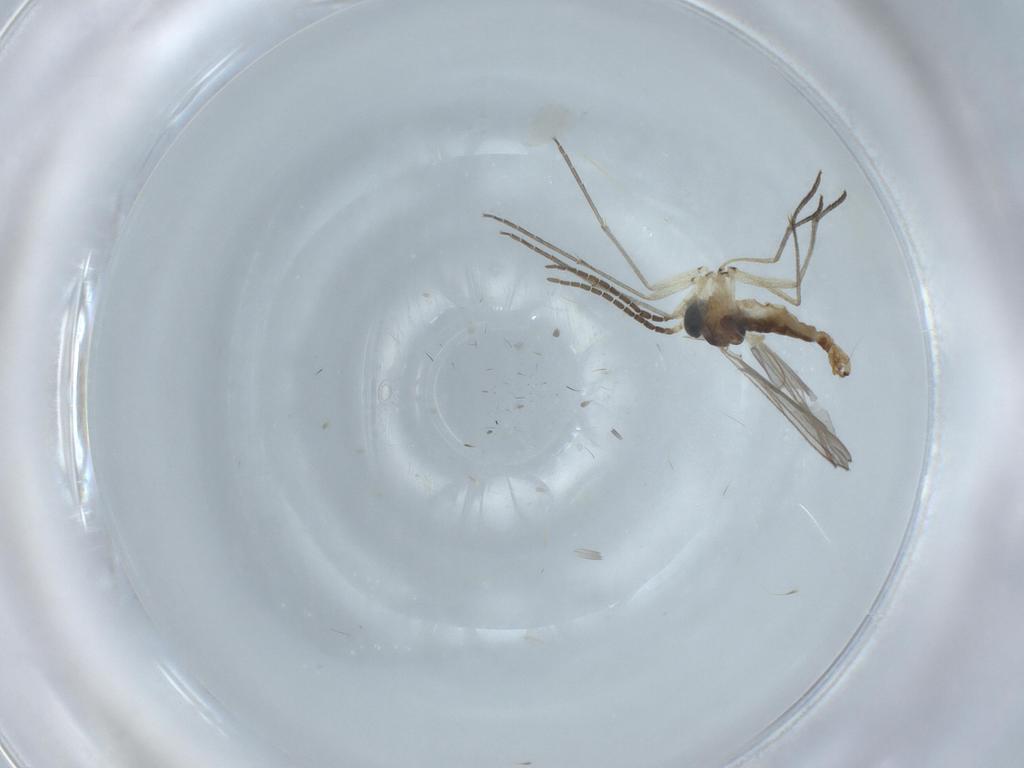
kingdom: Animalia
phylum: Arthropoda
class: Insecta
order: Diptera
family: Sciaridae
